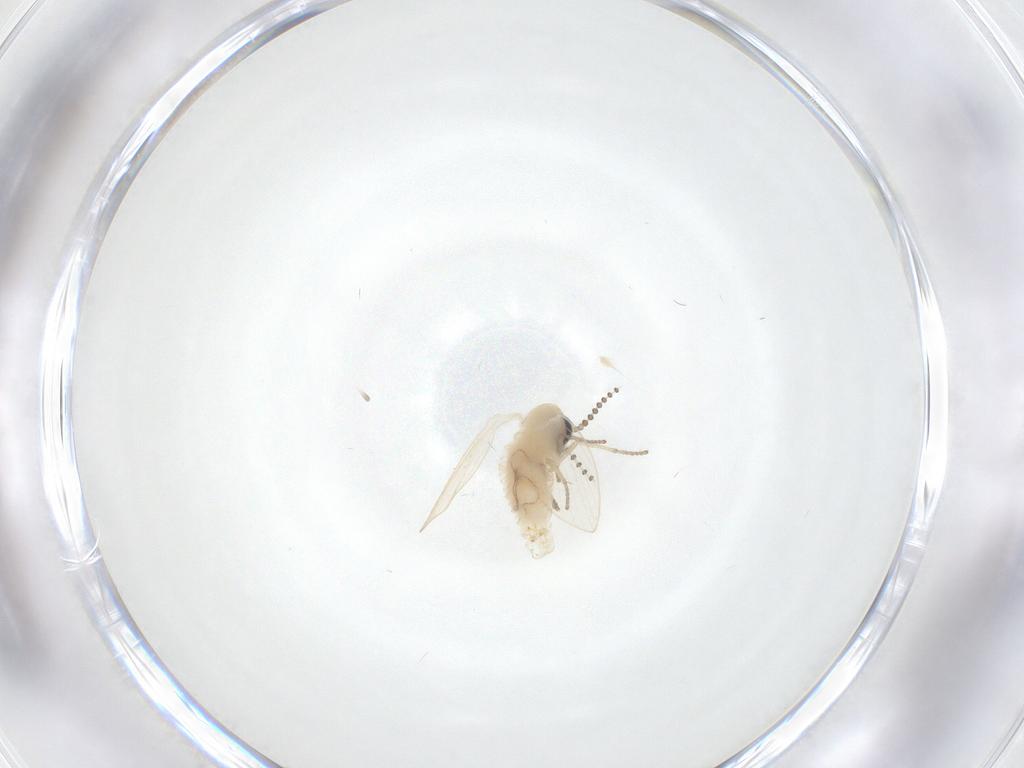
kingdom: Animalia
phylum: Arthropoda
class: Insecta
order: Diptera
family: Psychodidae
